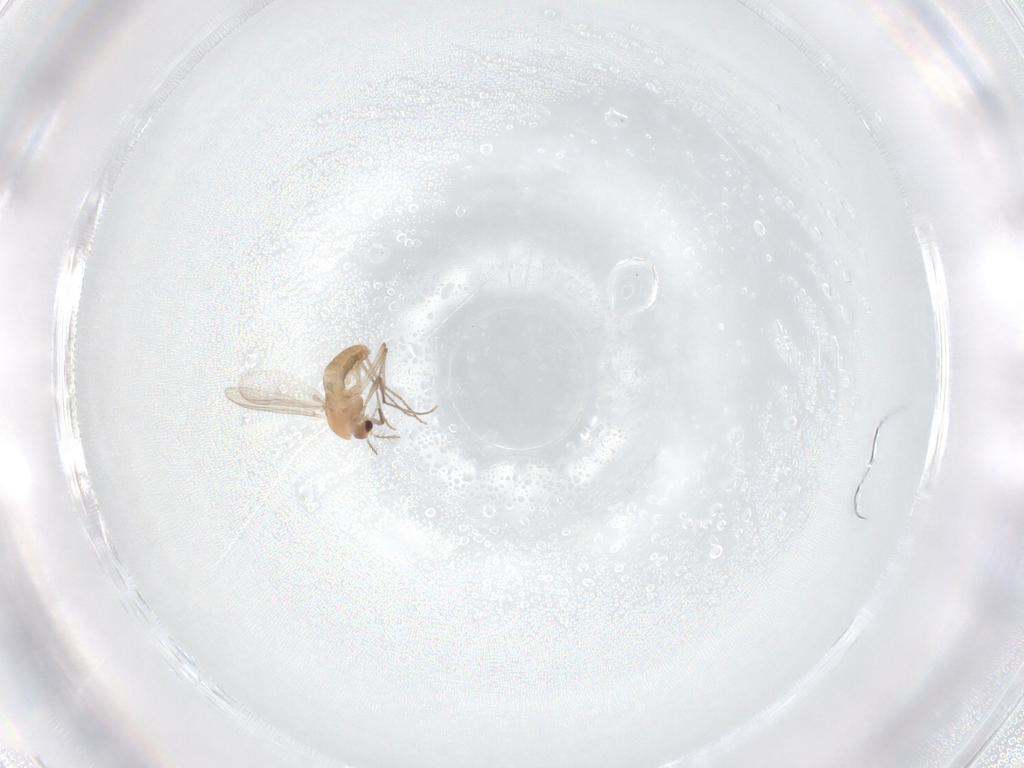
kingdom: Animalia
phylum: Arthropoda
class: Insecta
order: Diptera
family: Chironomidae
